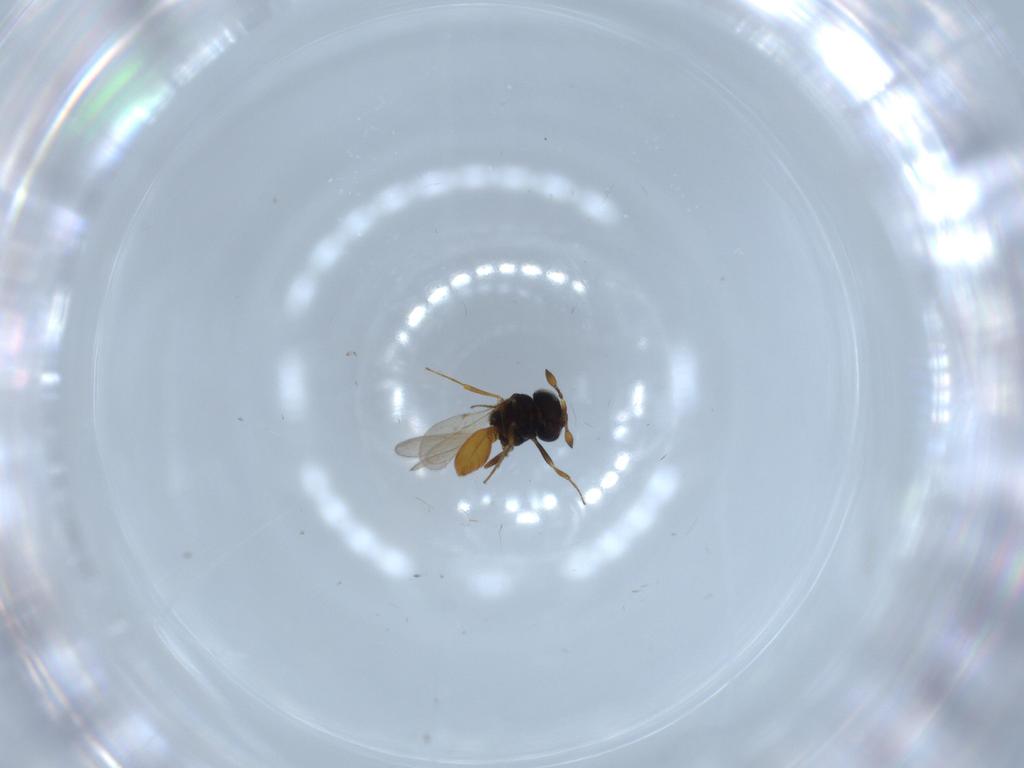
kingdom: Animalia
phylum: Arthropoda
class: Insecta
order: Hymenoptera
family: Scelionidae
